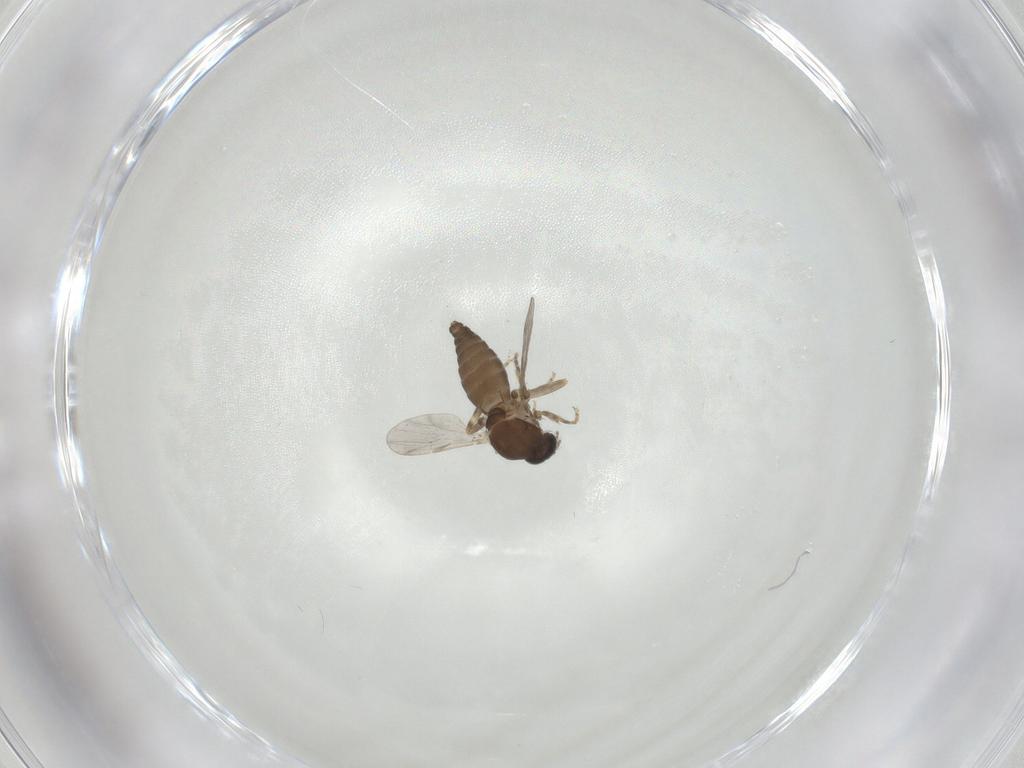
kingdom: Animalia
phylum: Arthropoda
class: Insecta
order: Diptera
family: Ceratopogonidae
